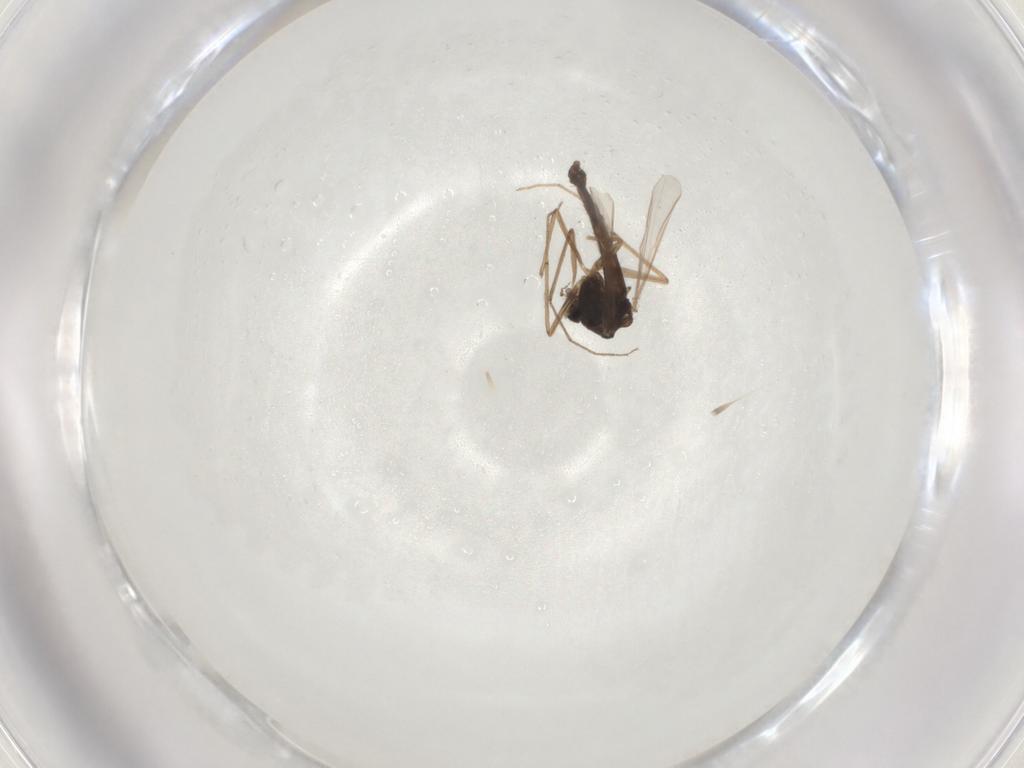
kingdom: Animalia
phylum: Arthropoda
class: Insecta
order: Diptera
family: Chironomidae
